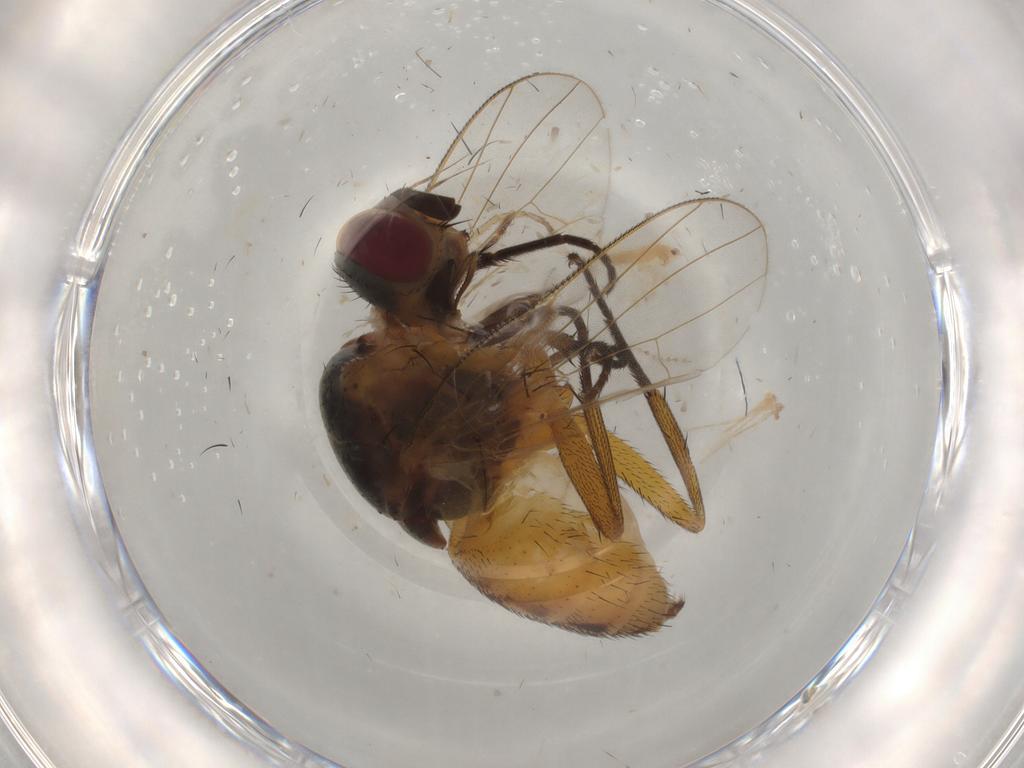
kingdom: Animalia
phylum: Arthropoda
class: Insecta
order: Diptera
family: Muscidae
